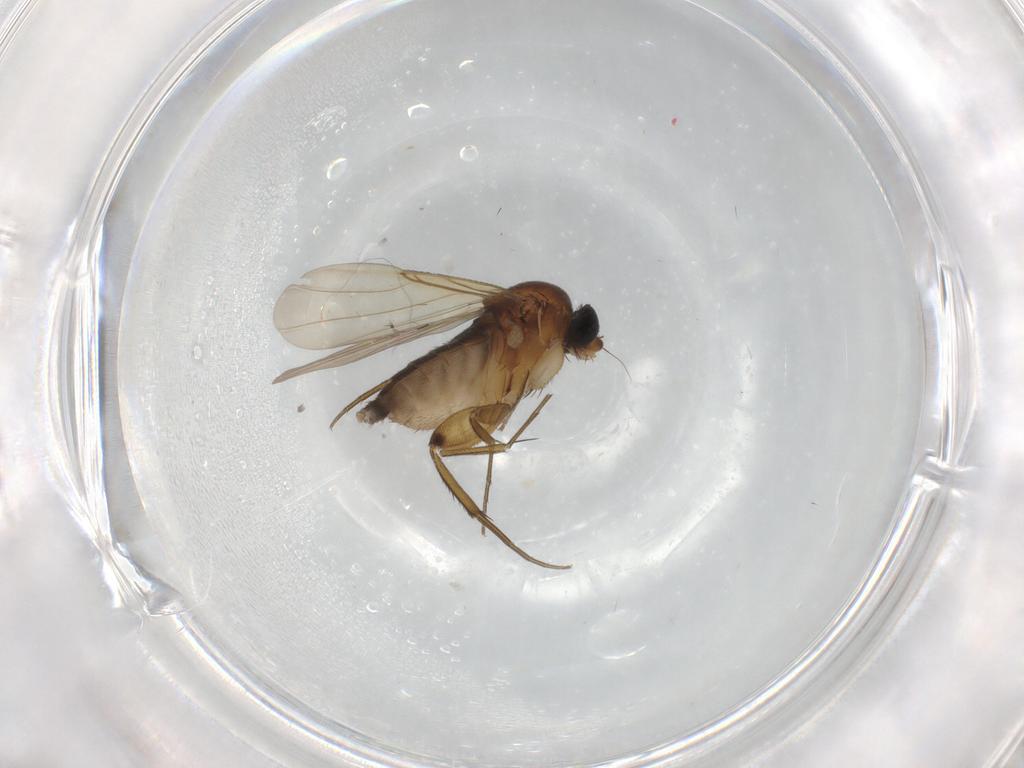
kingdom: Animalia
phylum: Arthropoda
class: Insecta
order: Diptera
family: Phoridae
